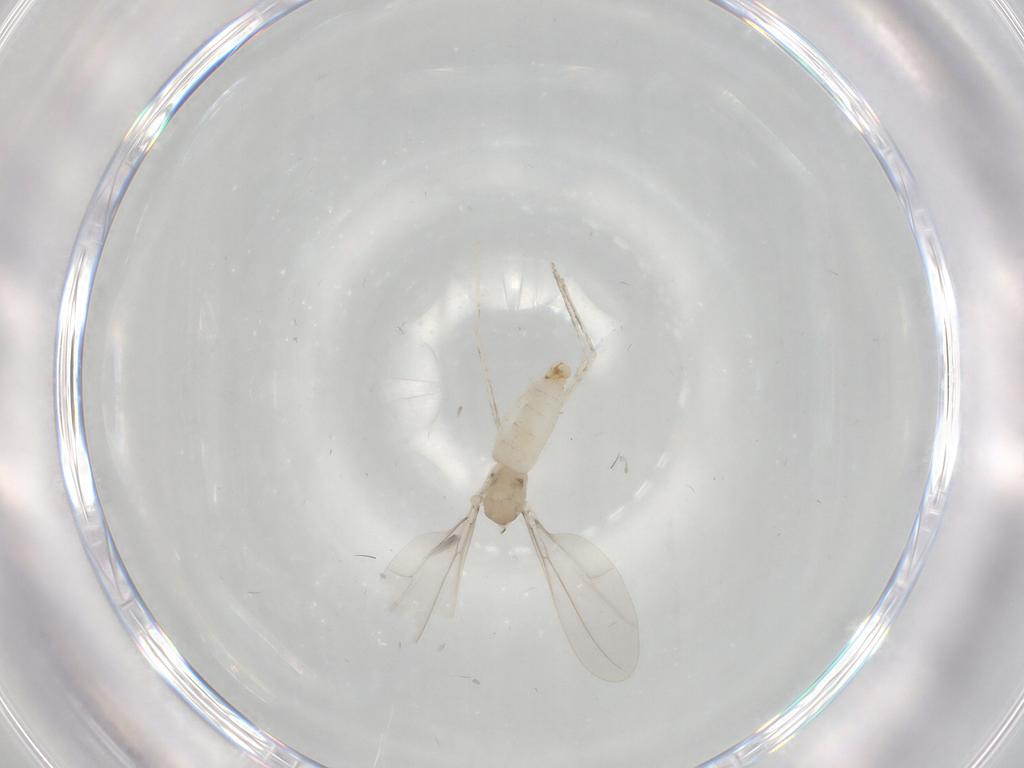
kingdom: Animalia
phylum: Arthropoda
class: Insecta
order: Diptera
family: Cecidomyiidae
